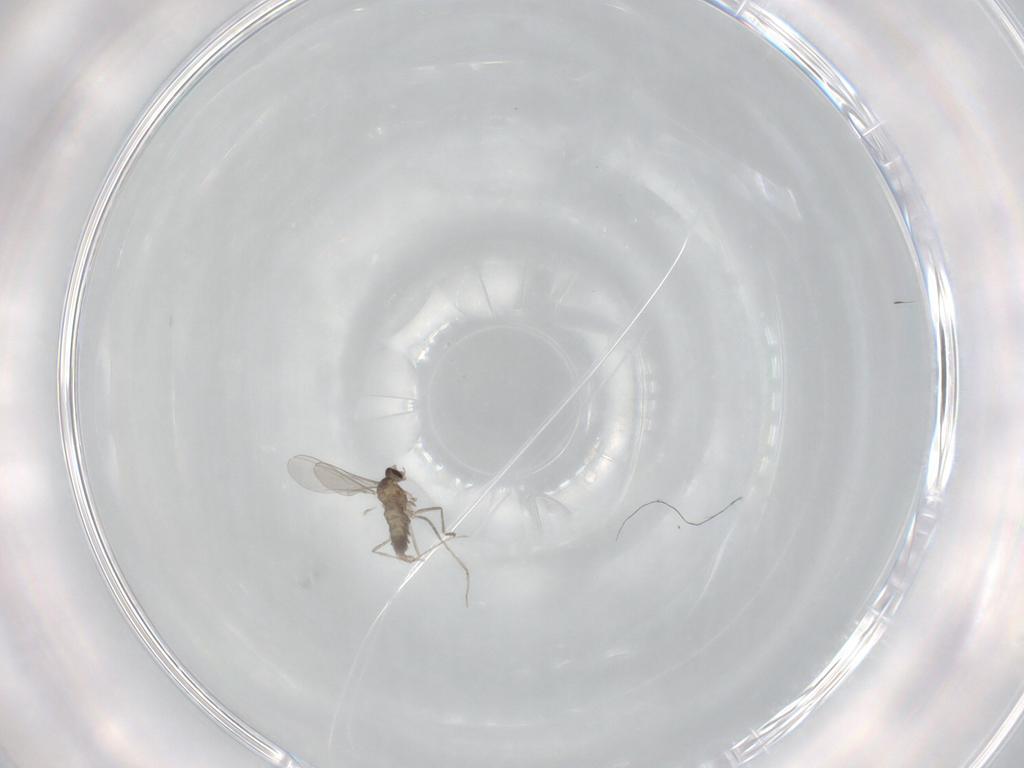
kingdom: Animalia
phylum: Arthropoda
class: Insecta
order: Diptera
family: Cecidomyiidae
